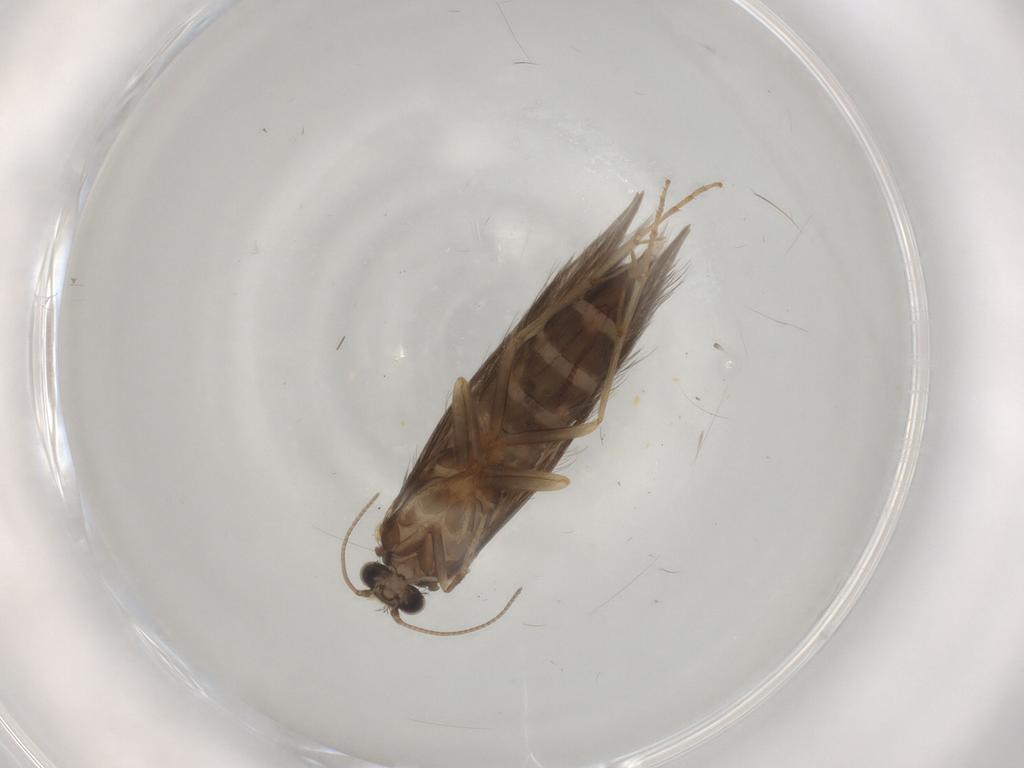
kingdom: Animalia
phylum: Arthropoda
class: Insecta
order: Trichoptera
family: Hydroptilidae
